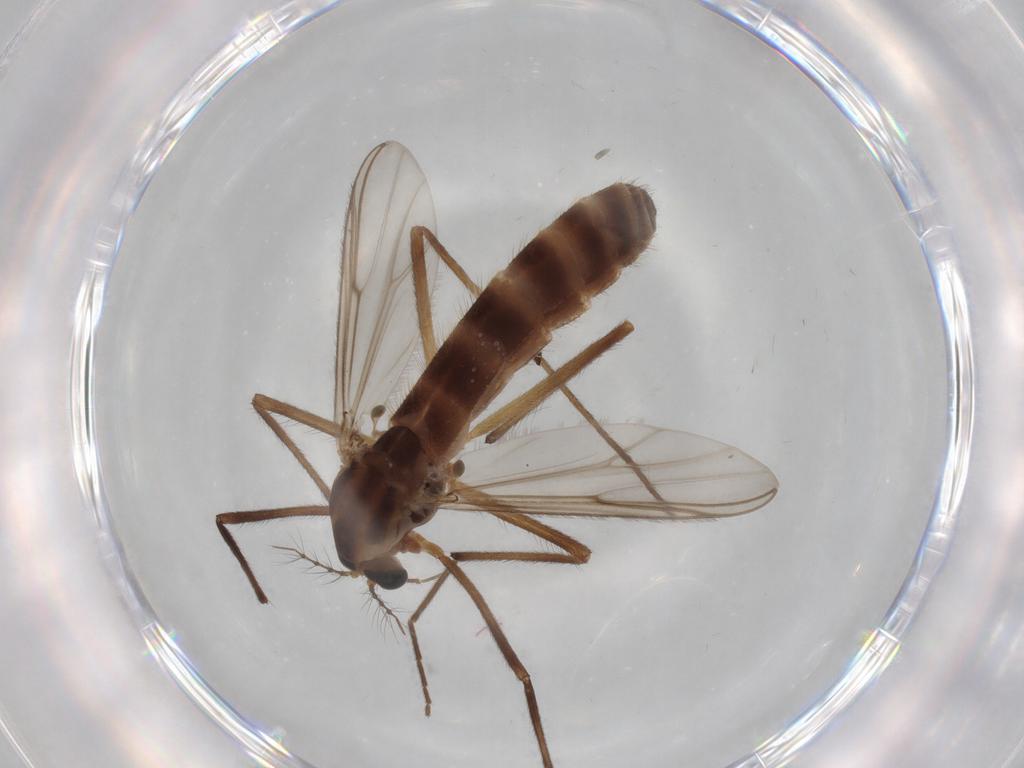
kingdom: Animalia
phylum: Arthropoda
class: Insecta
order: Diptera
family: Chironomidae
